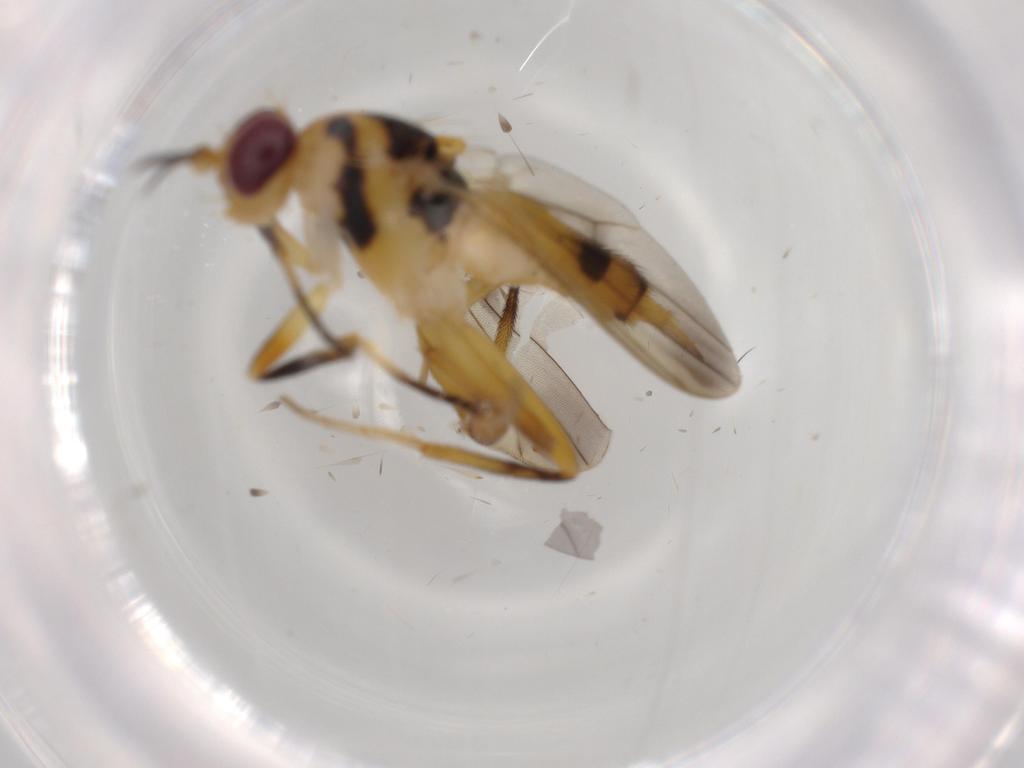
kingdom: Animalia
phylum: Arthropoda
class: Insecta
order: Diptera
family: Clusiidae
